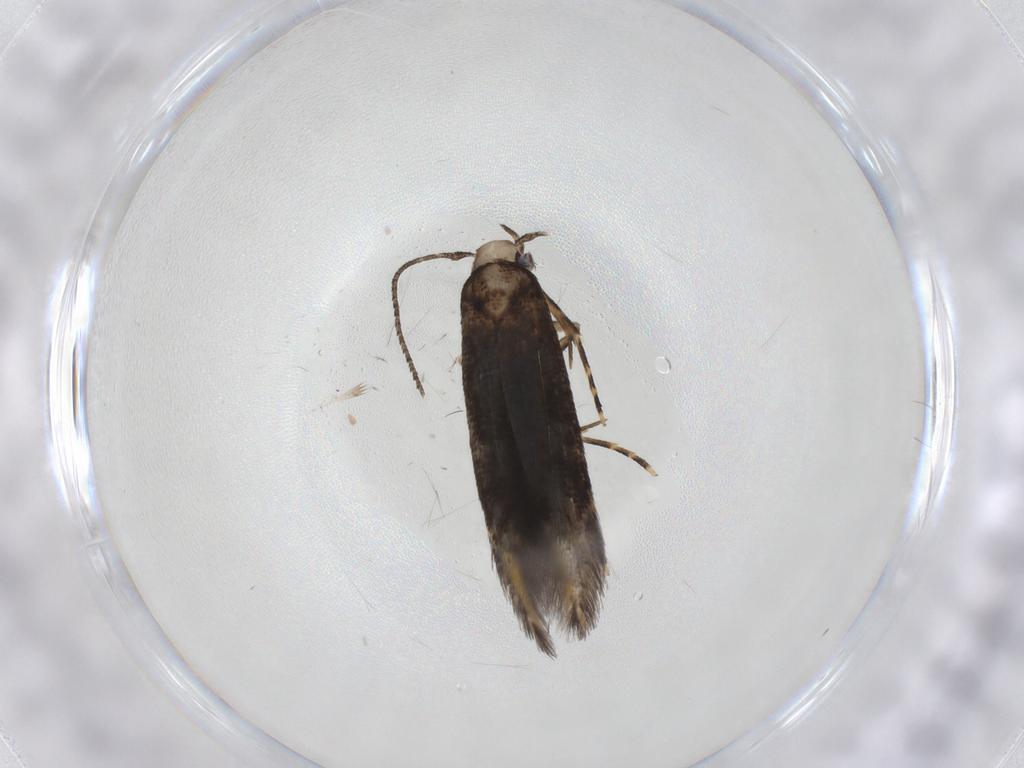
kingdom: Animalia
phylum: Arthropoda
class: Insecta
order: Lepidoptera
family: Cosmopterigidae
